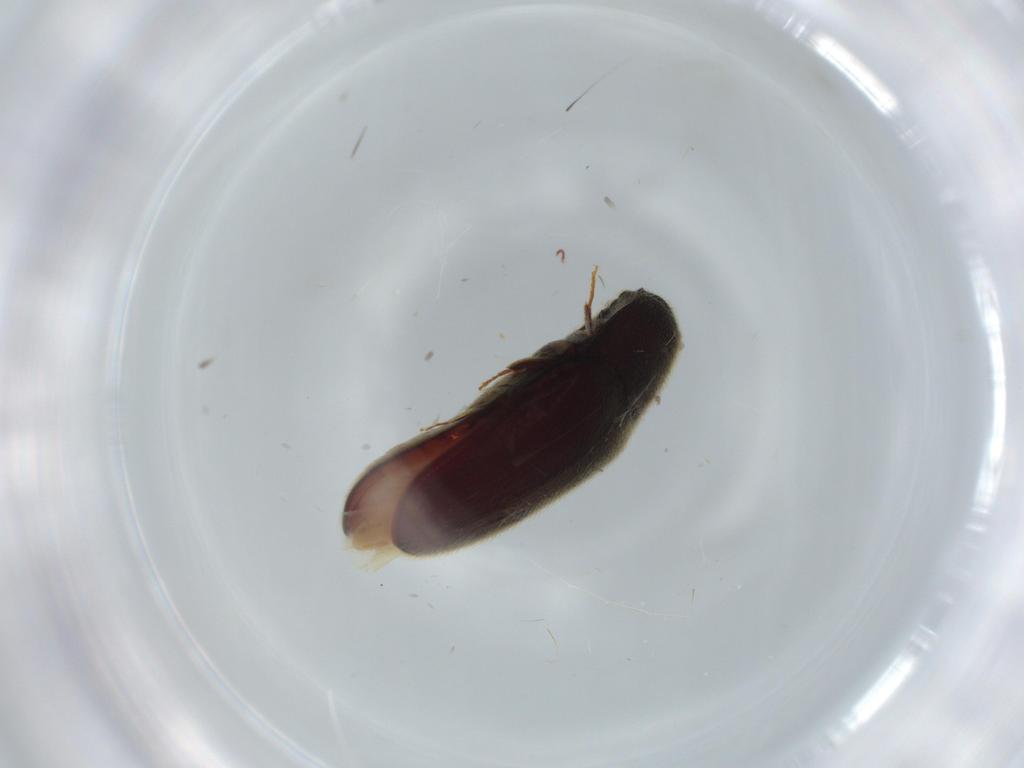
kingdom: Animalia
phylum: Arthropoda
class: Insecta
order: Coleoptera
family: Throscidae
